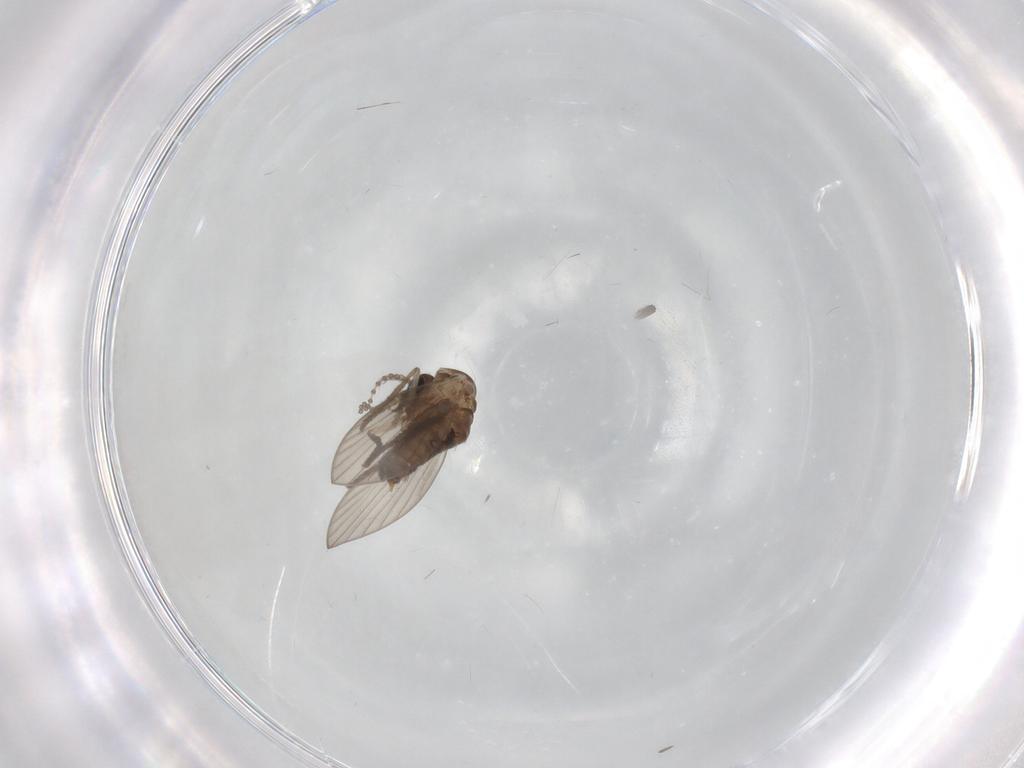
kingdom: Animalia
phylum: Arthropoda
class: Insecta
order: Diptera
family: Psychodidae
